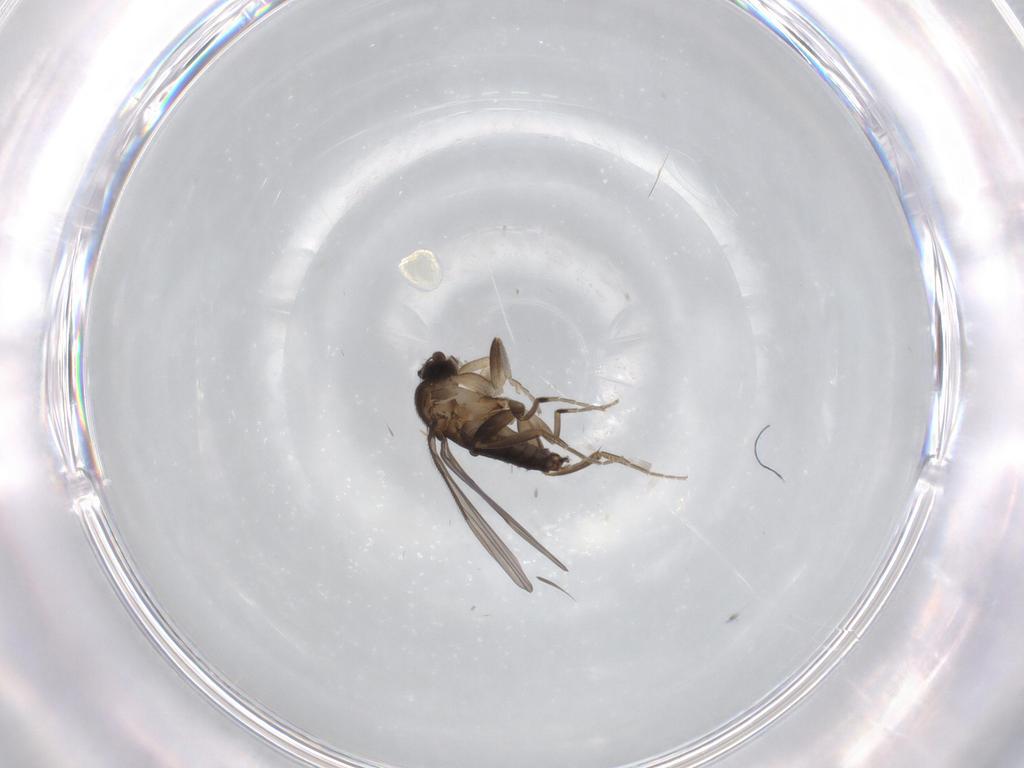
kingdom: Animalia
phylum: Arthropoda
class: Insecta
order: Diptera
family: Phoridae
